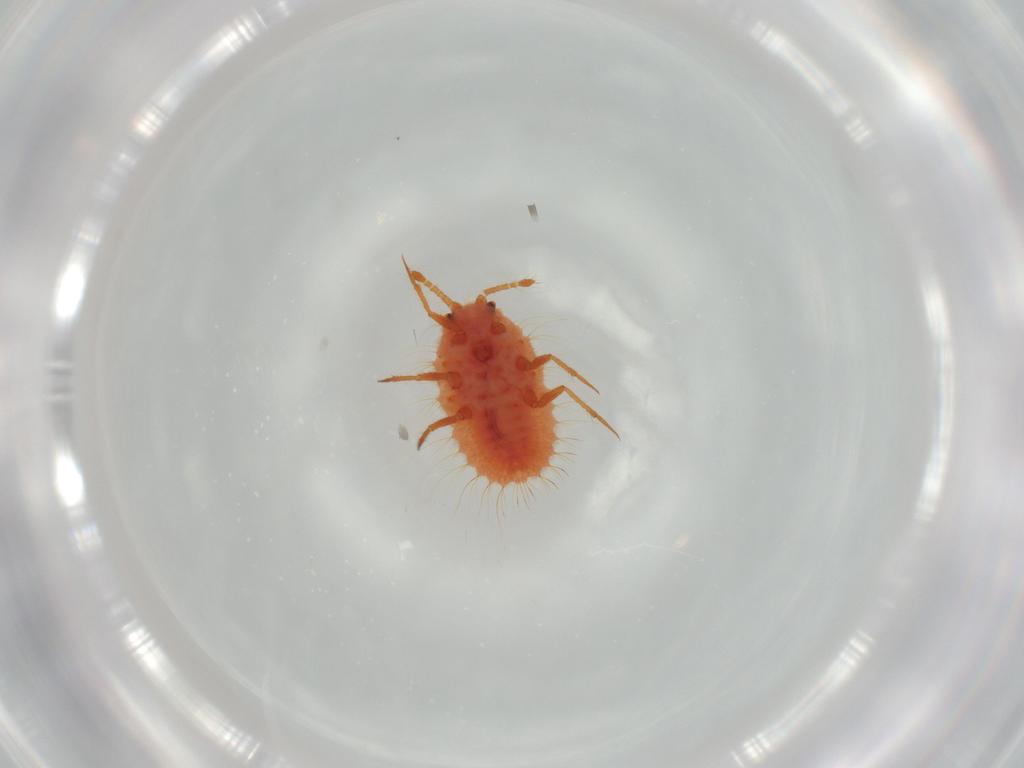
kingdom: Animalia
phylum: Arthropoda
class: Insecta
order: Hemiptera
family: Coccoidea_incertae_sedis
